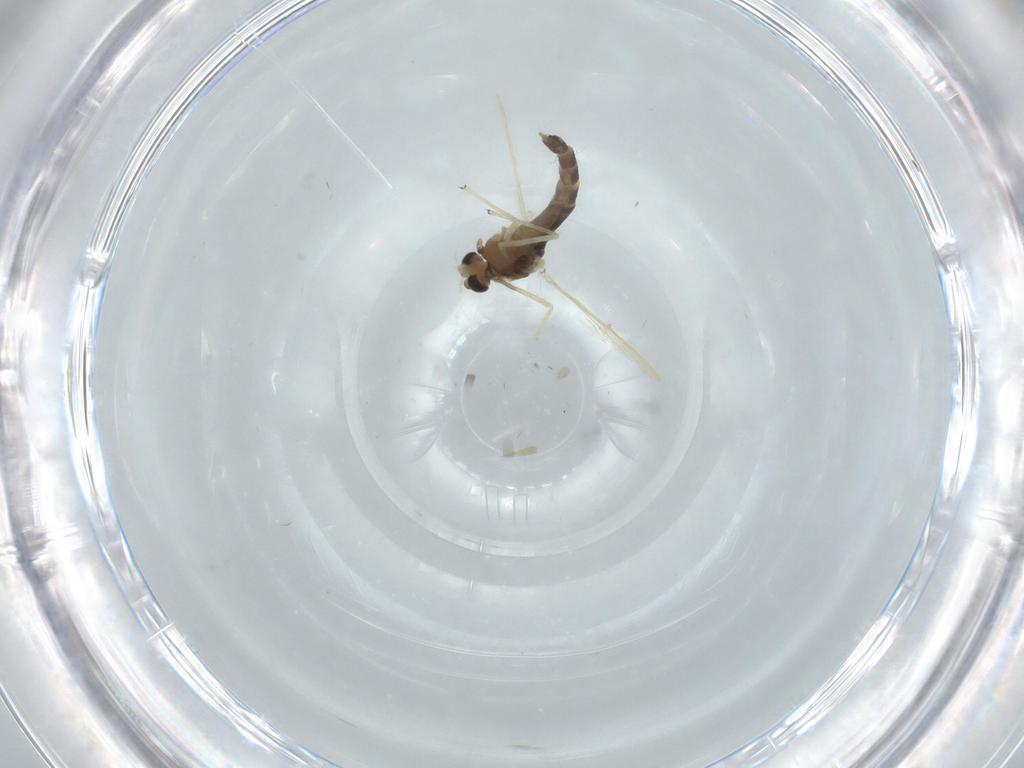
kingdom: Animalia
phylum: Arthropoda
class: Insecta
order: Diptera
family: Chironomidae
